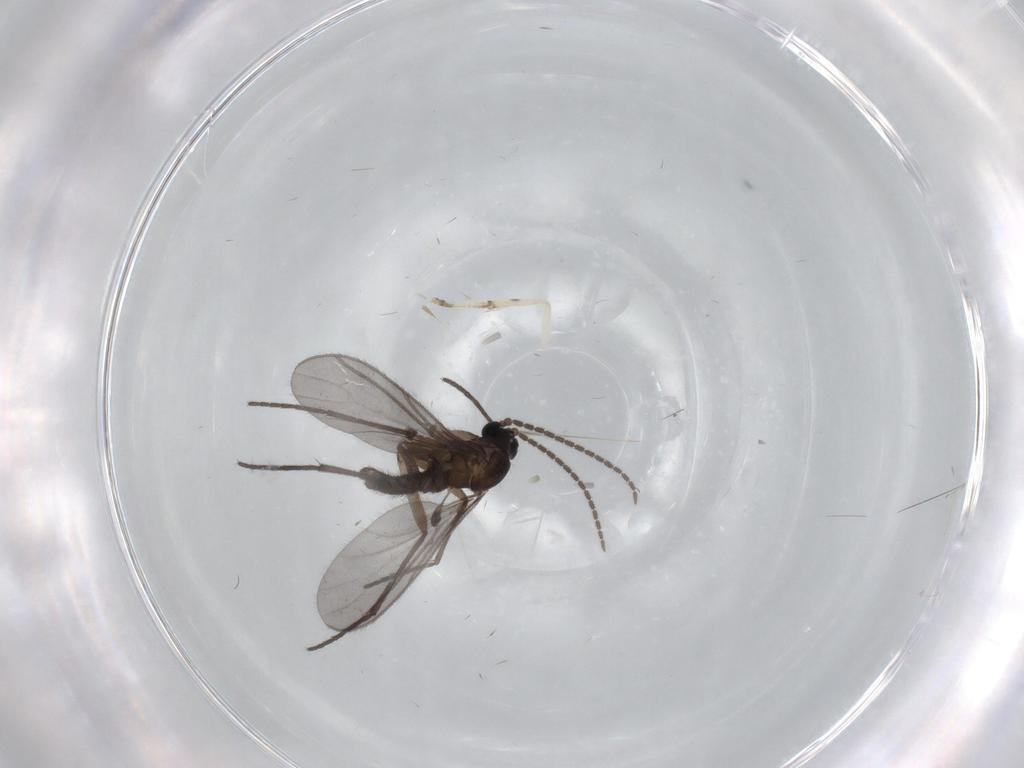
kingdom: Animalia
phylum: Arthropoda
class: Insecta
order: Diptera
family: Sciaridae
